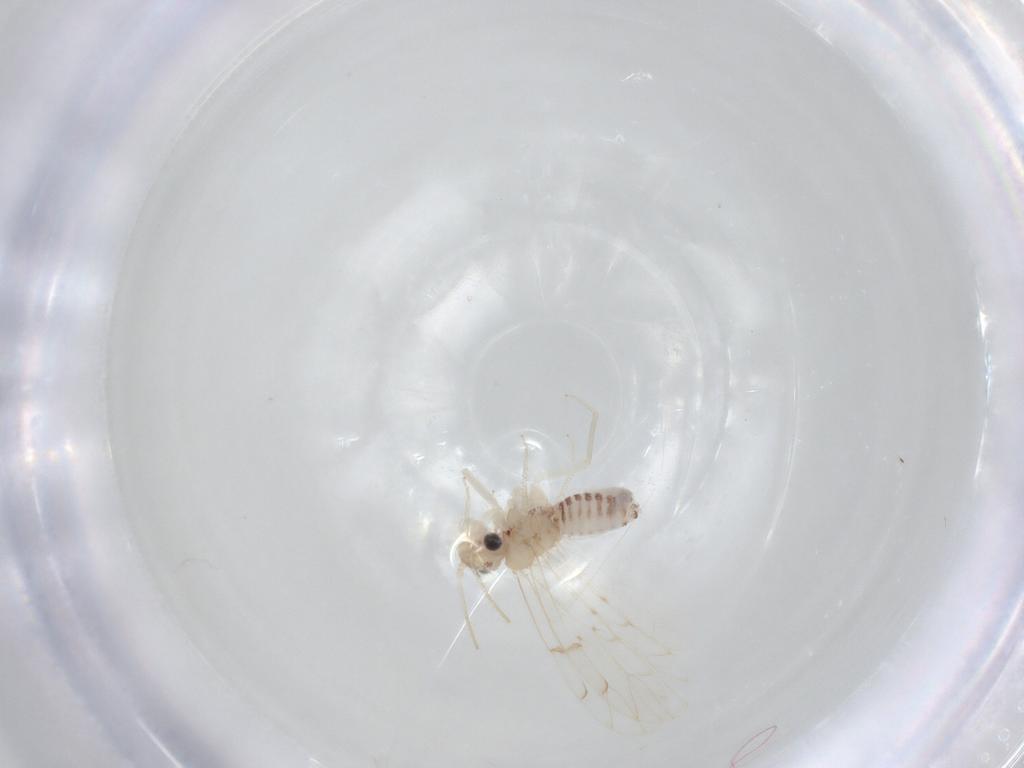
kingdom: Animalia
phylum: Arthropoda
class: Insecta
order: Psocodea
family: Peripsocidae
